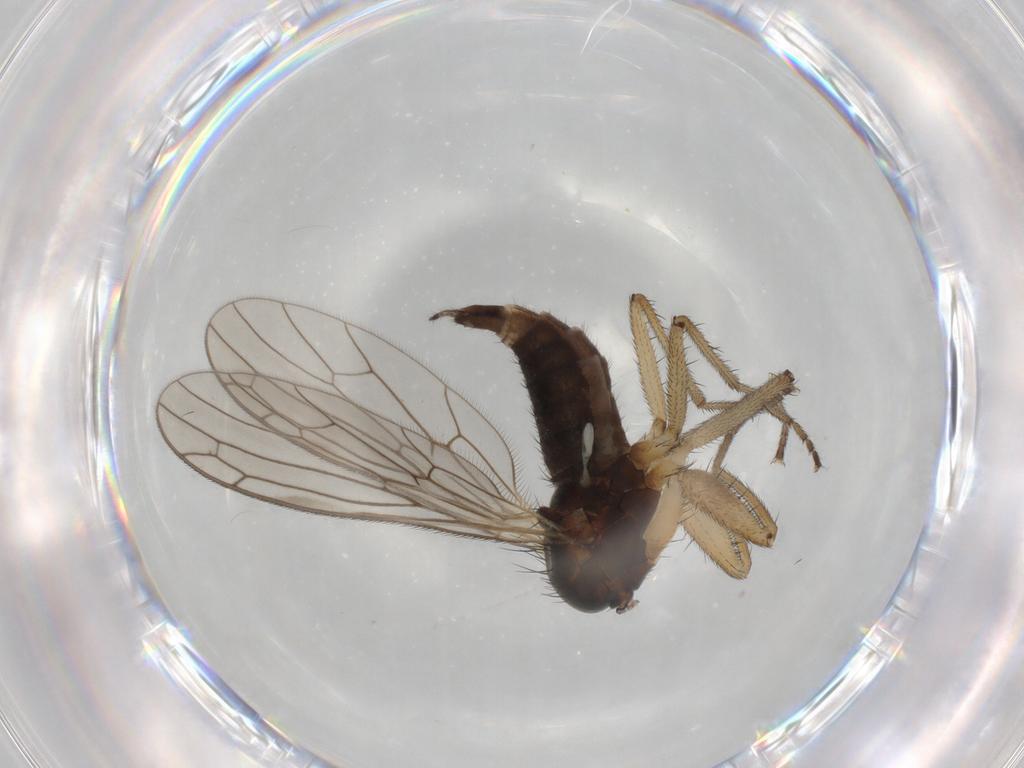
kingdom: Animalia
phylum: Arthropoda
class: Insecta
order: Diptera
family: Empididae
